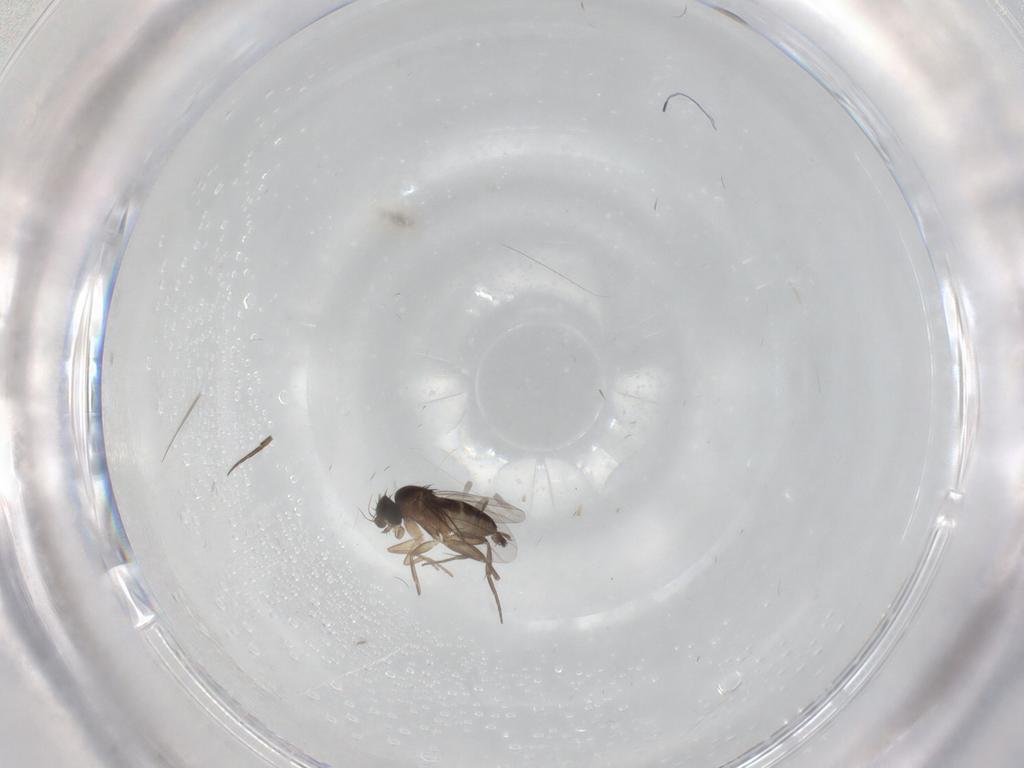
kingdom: Animalia
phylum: Arthropoda
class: Insecta
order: Diptera
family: Phoridae
